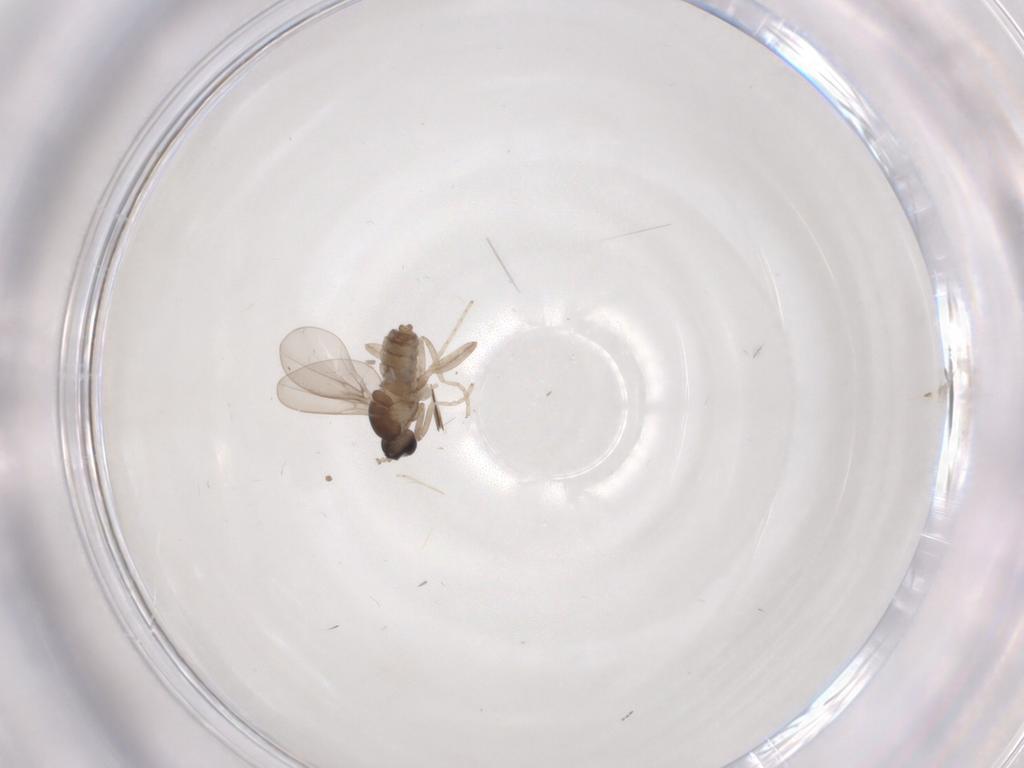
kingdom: Animalia
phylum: Arthropoda
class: Insecta
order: Diptera
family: Cecidomyiidae
